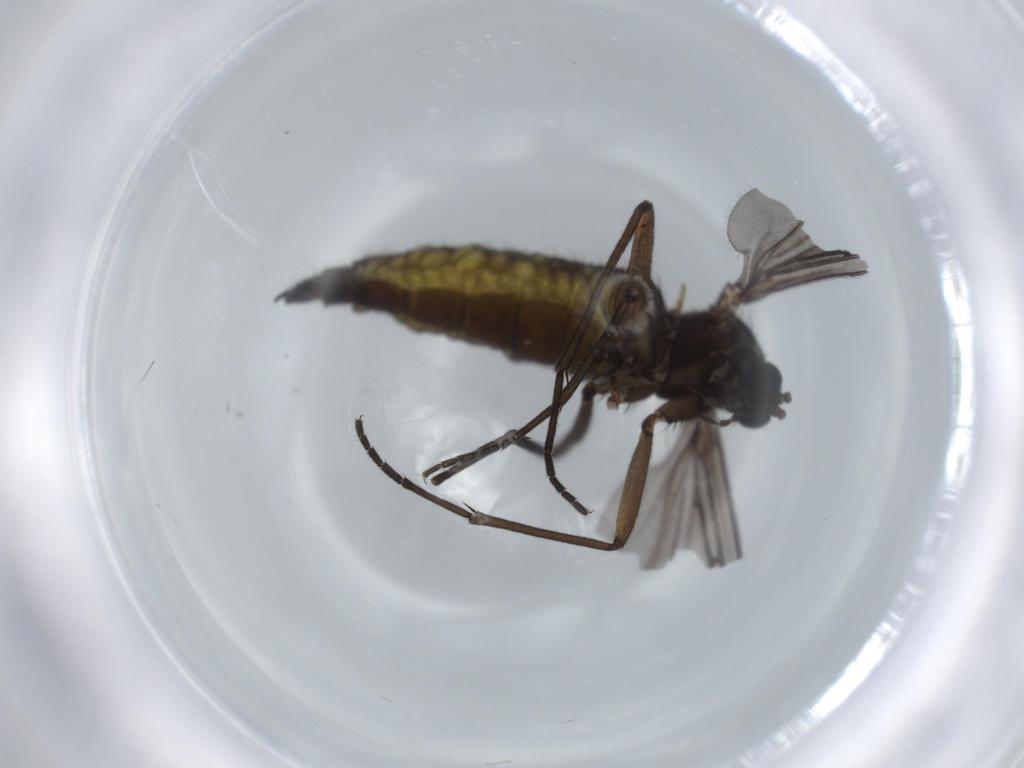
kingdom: Animalia
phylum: Arthropoda
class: Insecta
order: Diptera
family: Sciaridae
